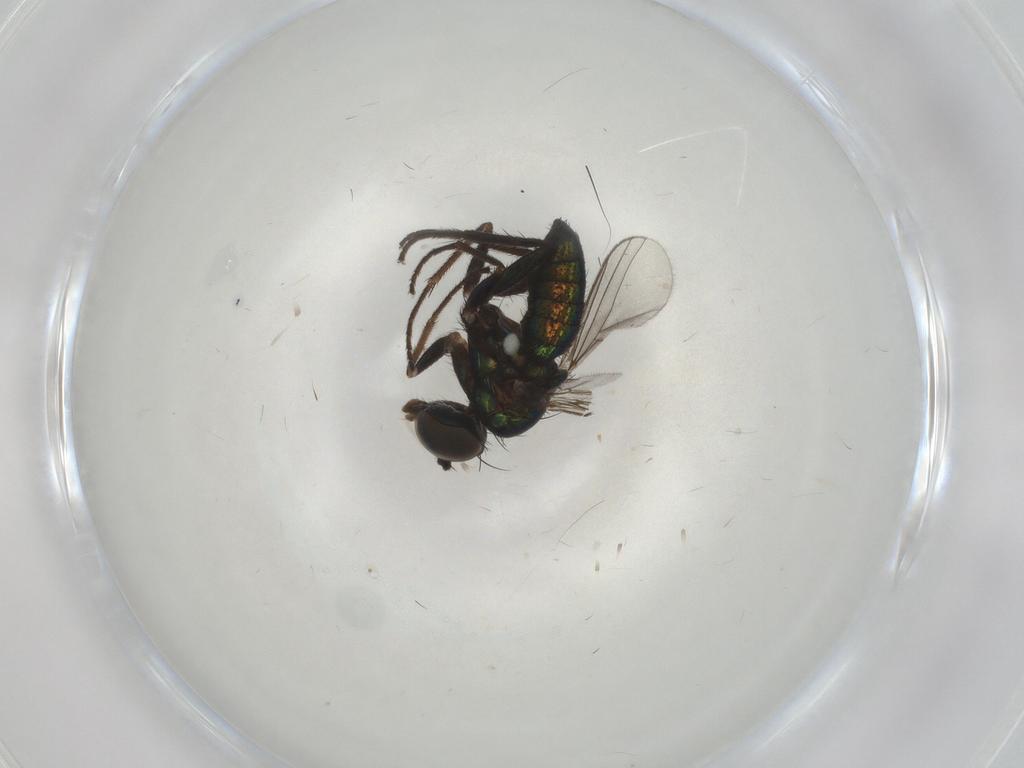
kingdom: Animalia
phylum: Arthropoda
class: Insecta
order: Diptera
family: Dolichopodidae
